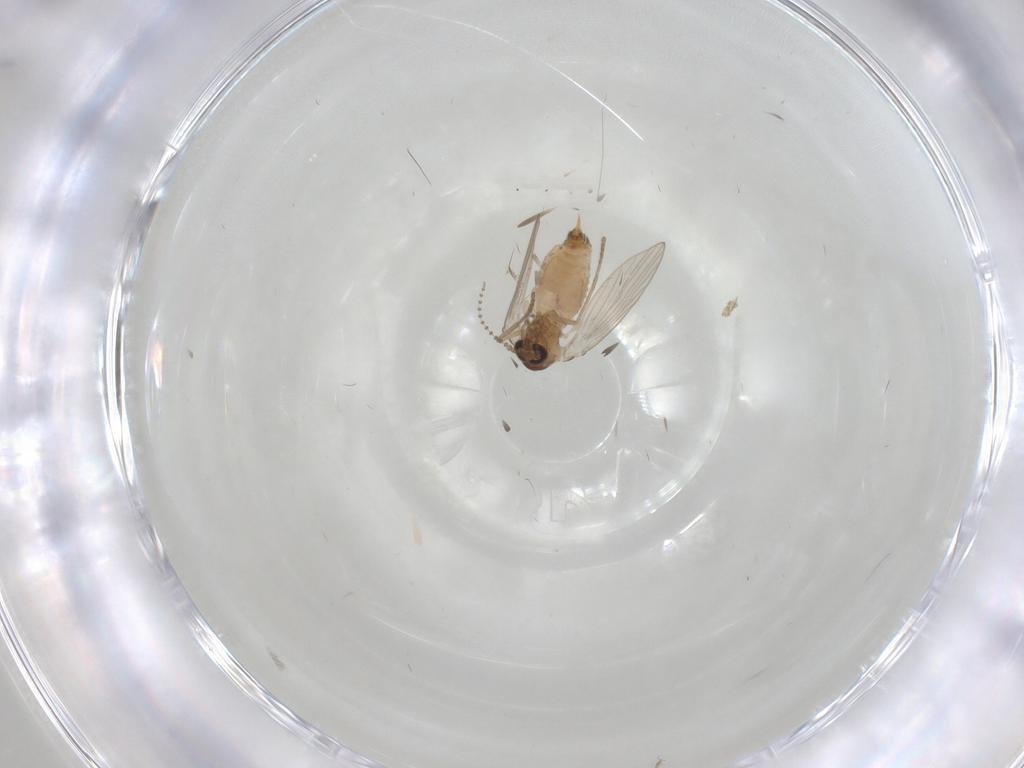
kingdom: Animalia
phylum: Arthropoda
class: Insecta
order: Diptera
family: Psychodidae
